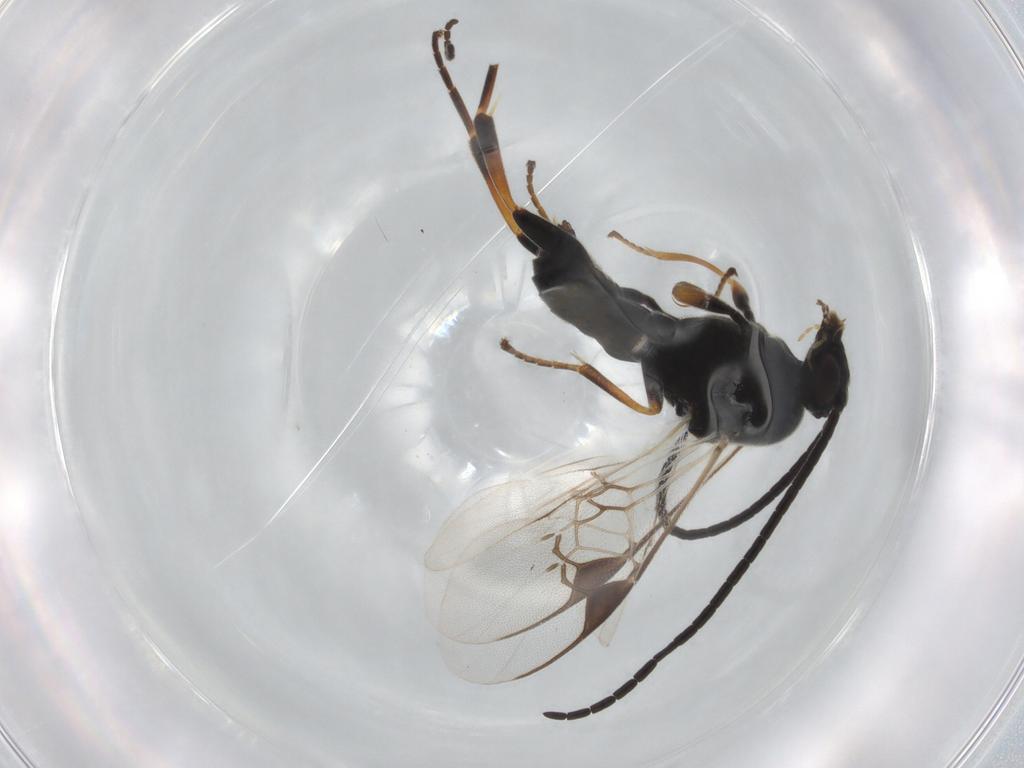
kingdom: Animalia
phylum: Arthropoda
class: Insecta
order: Hymenoptera
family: Braconidae
